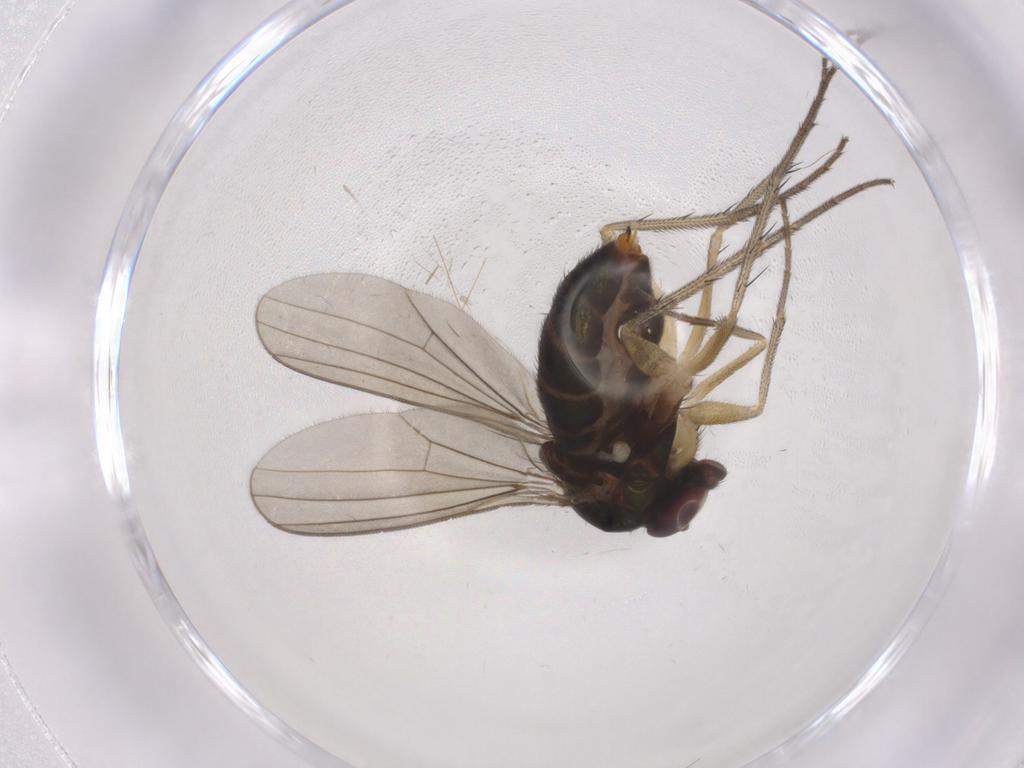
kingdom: Animalia
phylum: Arthropoda
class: Insecta
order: Diptera
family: Dolichopodidae
